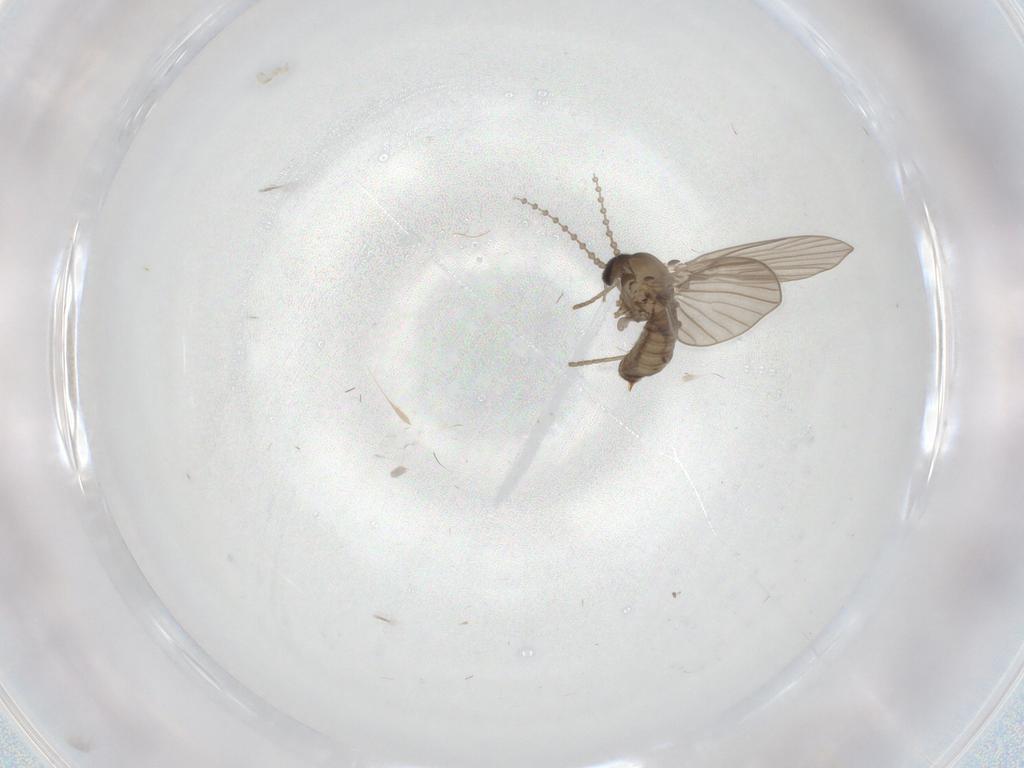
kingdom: Animalia
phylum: Arthropoda
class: Insecta
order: Diptera
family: Psychodidae
